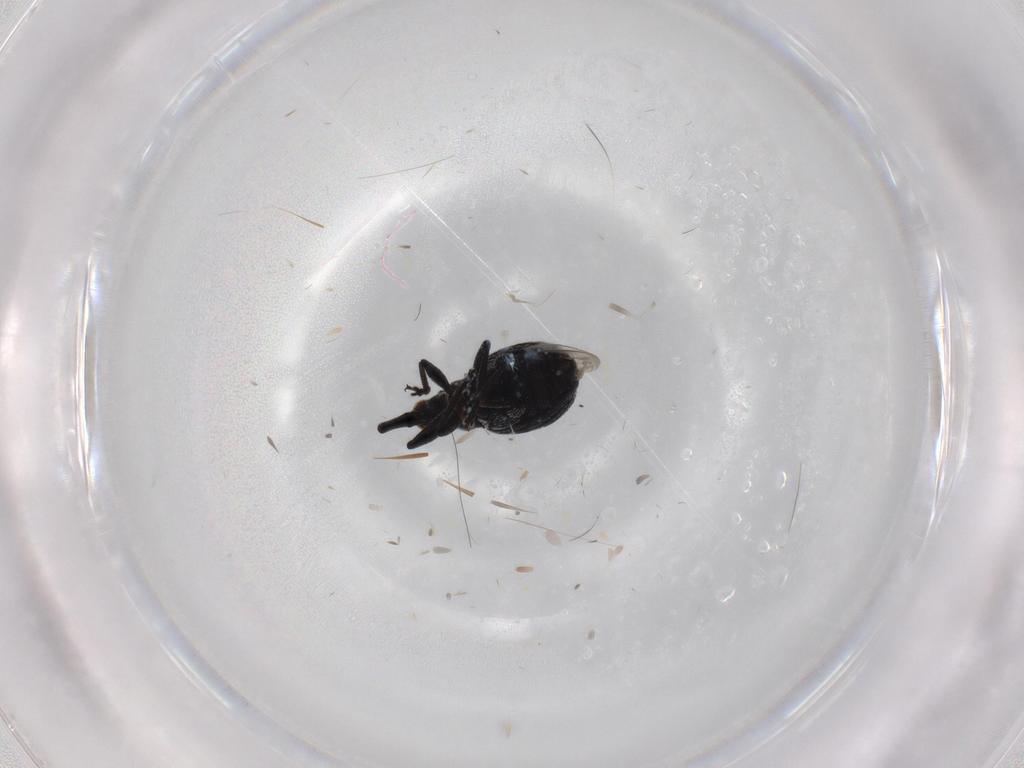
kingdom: Animalia
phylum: Arthropoda
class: Insecta
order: Coleoptera
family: Brentidae
